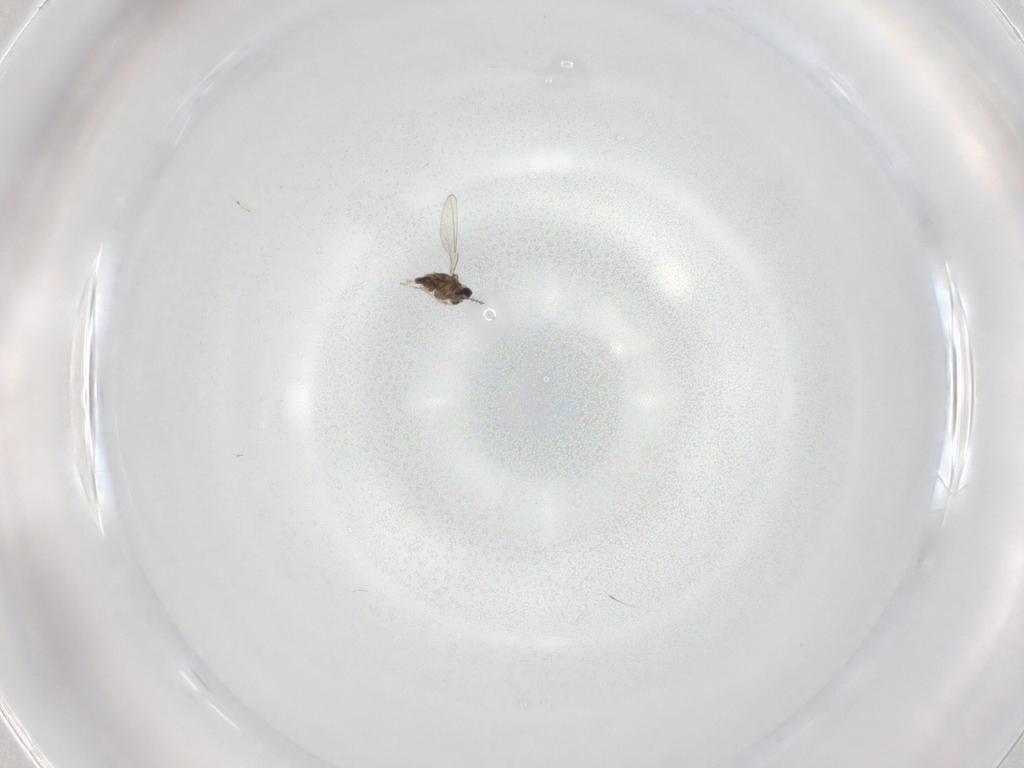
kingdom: Animalia
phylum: Arthropoda
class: Insecta
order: Diptera
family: Cecidomyiidae
